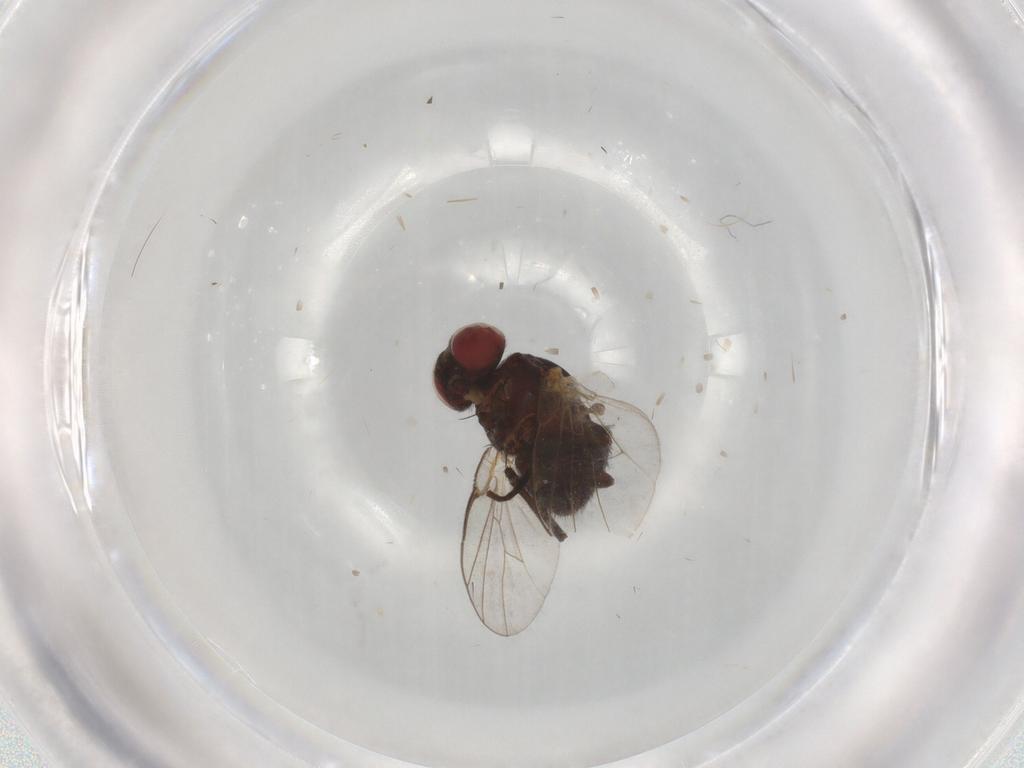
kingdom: Animalia
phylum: Arthropoda
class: Insecta
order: Diptera
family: Agromyzidae
